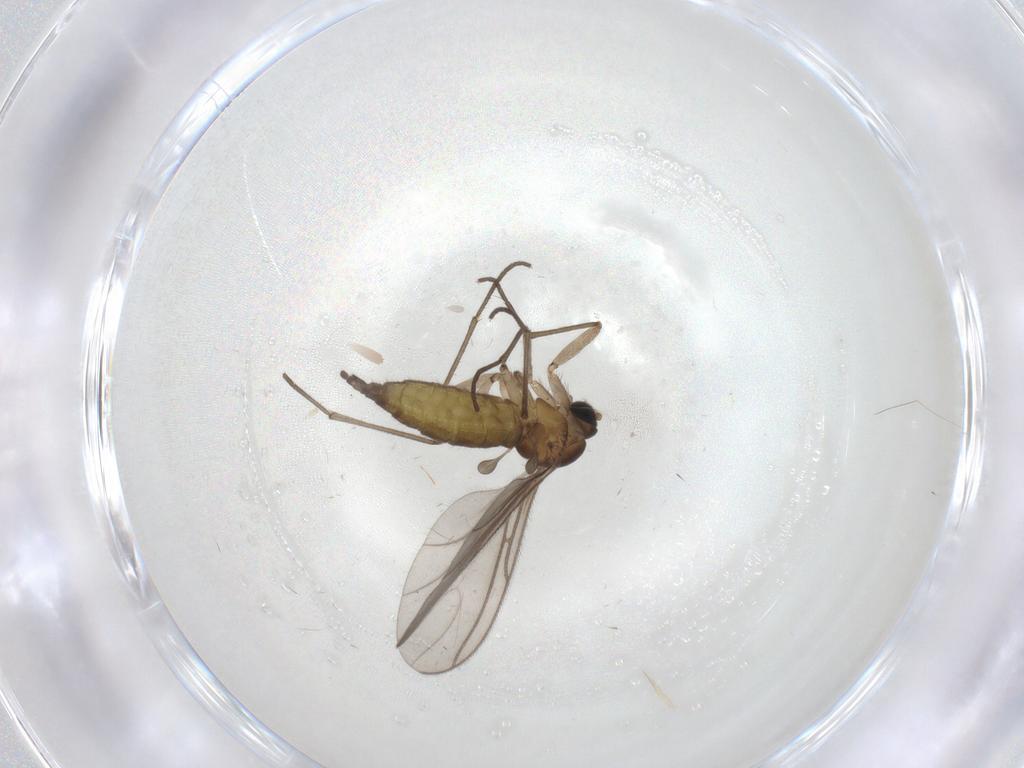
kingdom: Animalia
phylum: Arthropoda
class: Insecta
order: Diptera
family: Sciaridae
